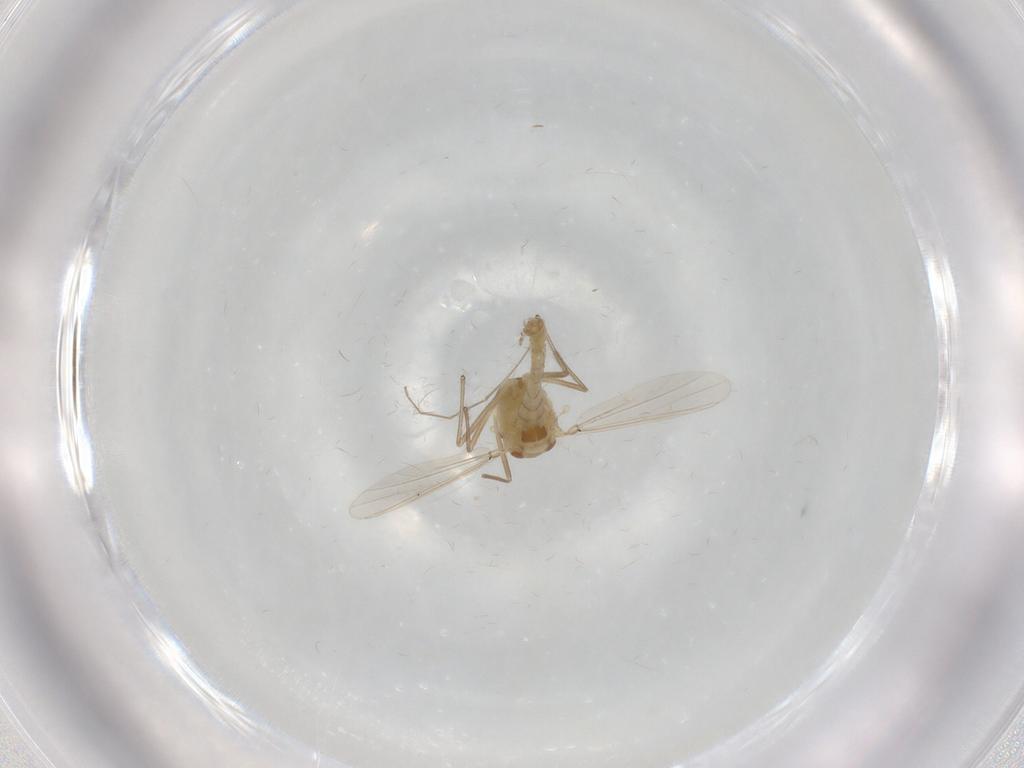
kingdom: Animalia
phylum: Arthropoda
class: Insecta
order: Diptera
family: Chironomidae
